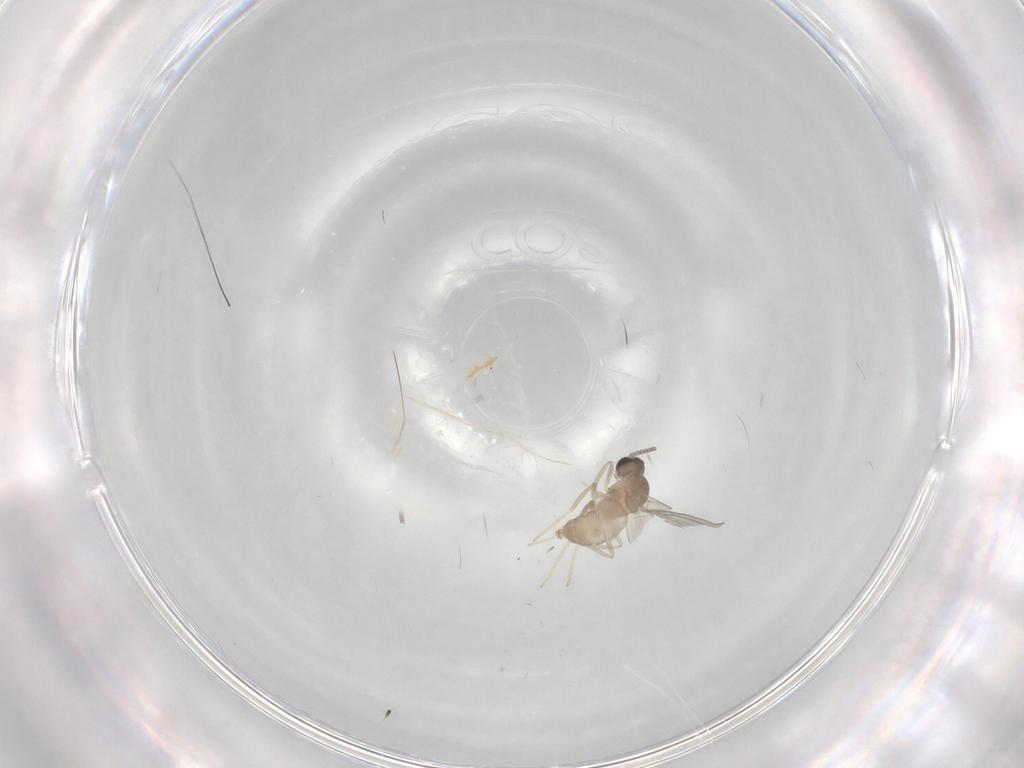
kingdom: Animalia
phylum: Arthropoda
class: Insecta
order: Diptera
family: Cecidomyiidae
